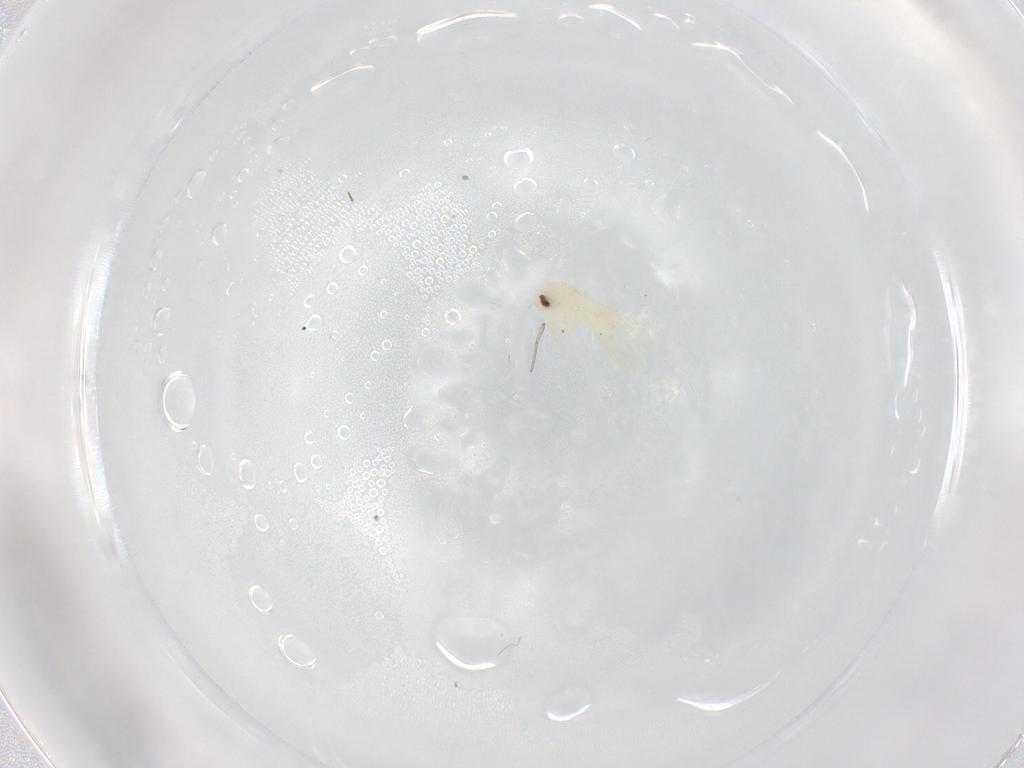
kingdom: Animalia
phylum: Arthropoda
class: Insecta
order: Hemiptera
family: Aleyrodidae
